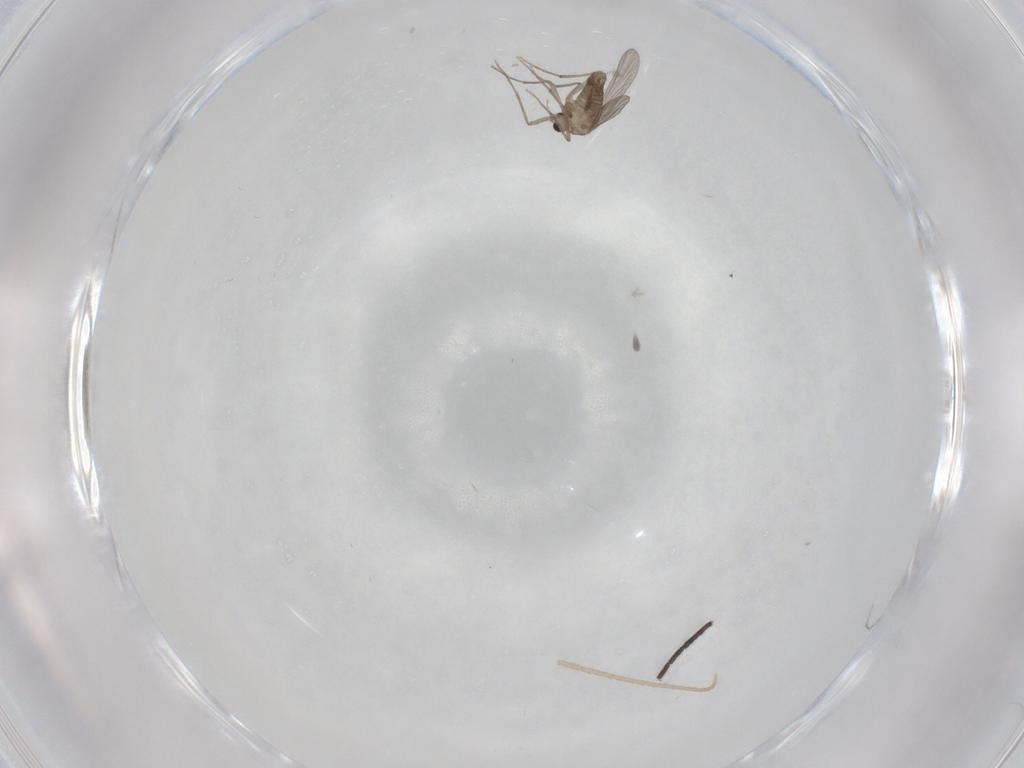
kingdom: Animalia
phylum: Arthropoda
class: Insecta
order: Diptera
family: Chironomidae
